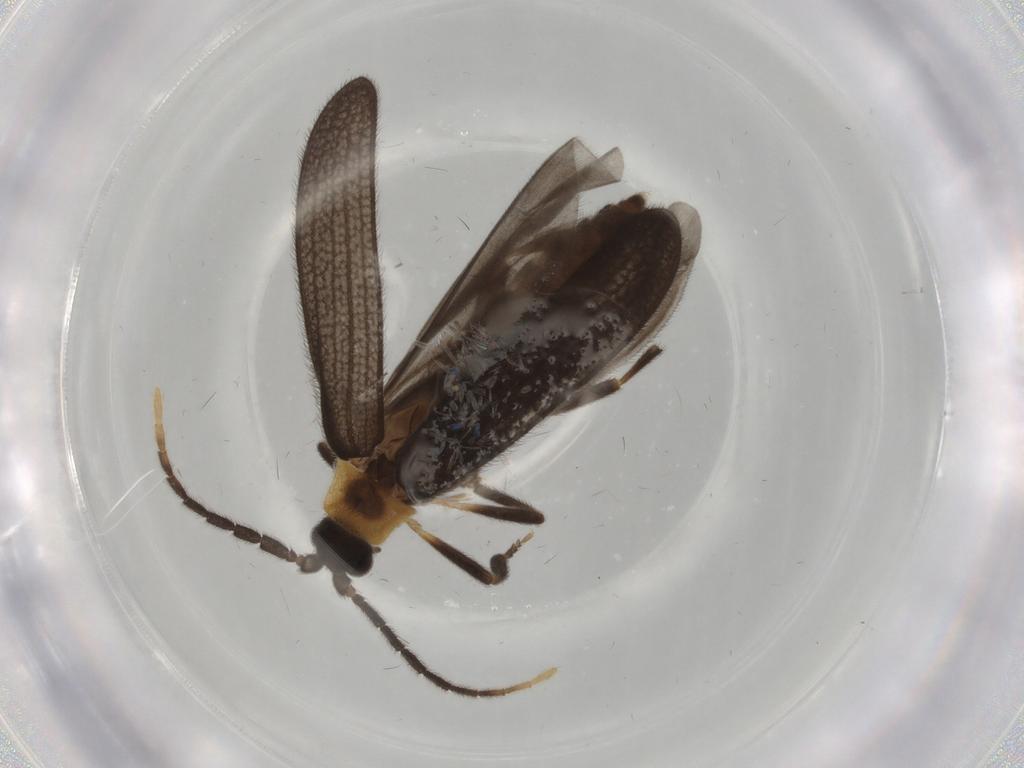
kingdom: Animalia
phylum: Arthropoda
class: Insecta
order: Coleoptera
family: Lycidae
